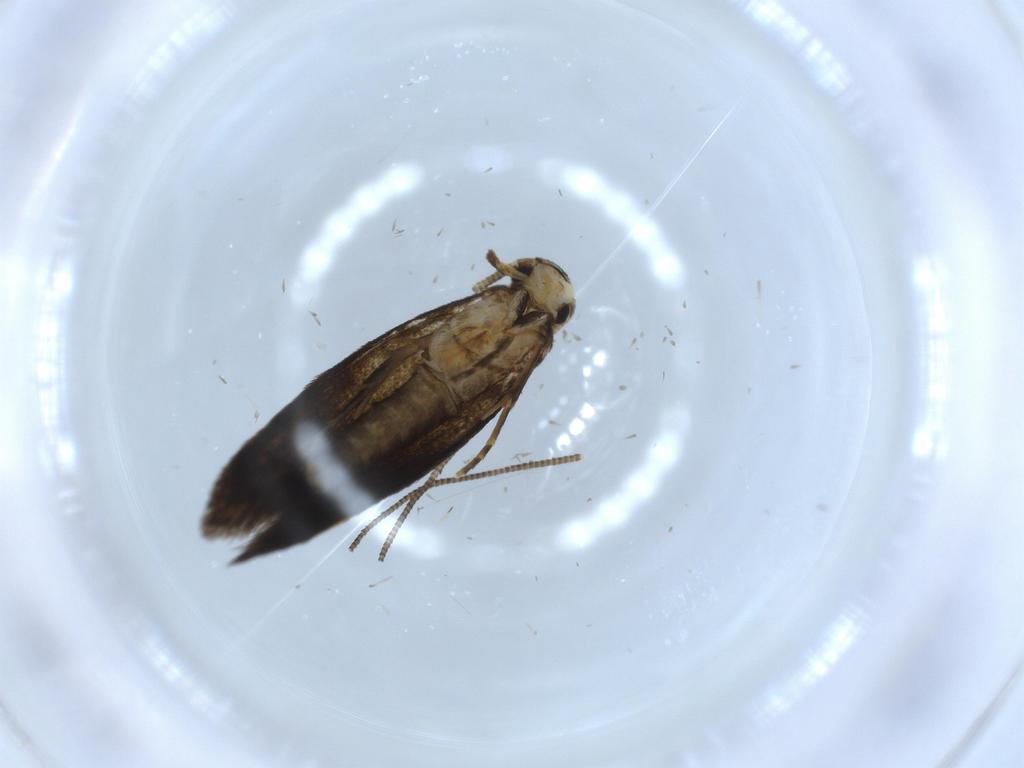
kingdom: Animalia
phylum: Arthropoda
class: Insecta
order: Lepidoptera
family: Tineidae
